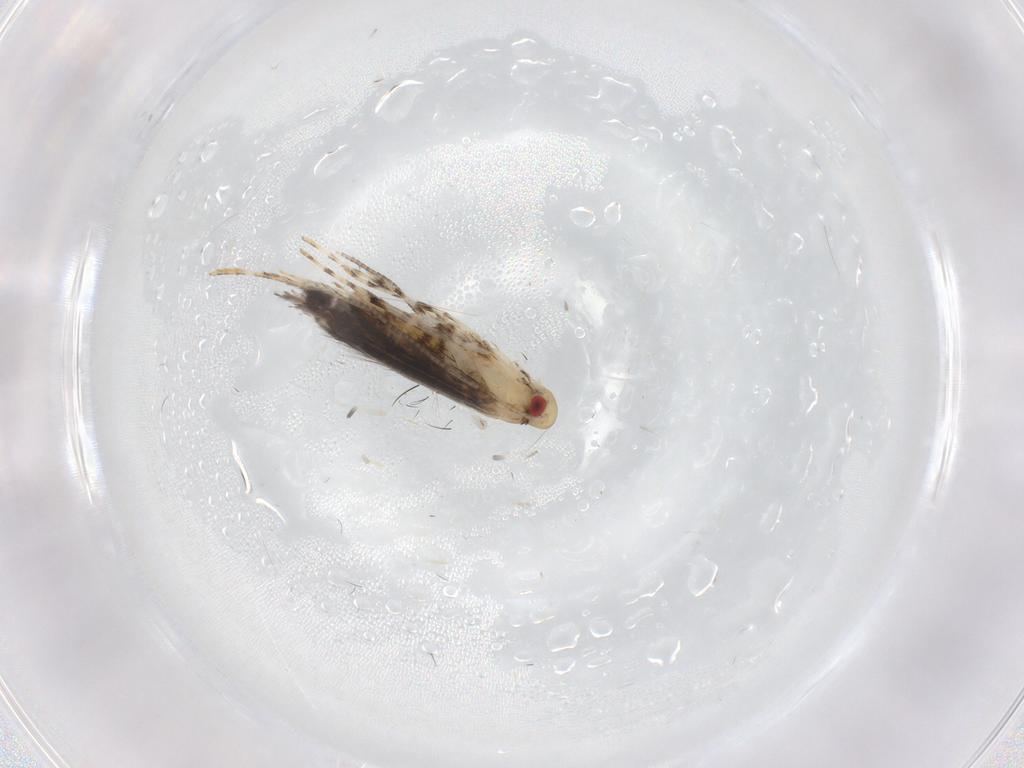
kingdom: Animalia
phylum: Arthropoda
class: Insecta
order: Lepidoptera
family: Gracillariidae
